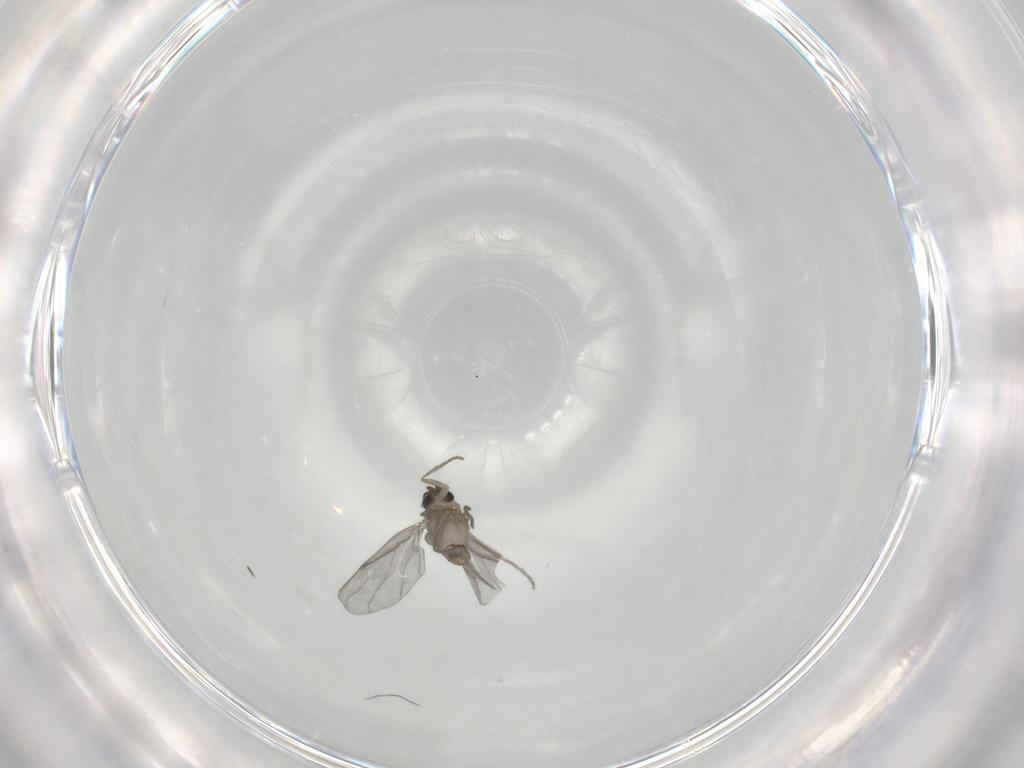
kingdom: Animalia
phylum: Arthropoda
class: Insecta
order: Diptera
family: Phoridae
